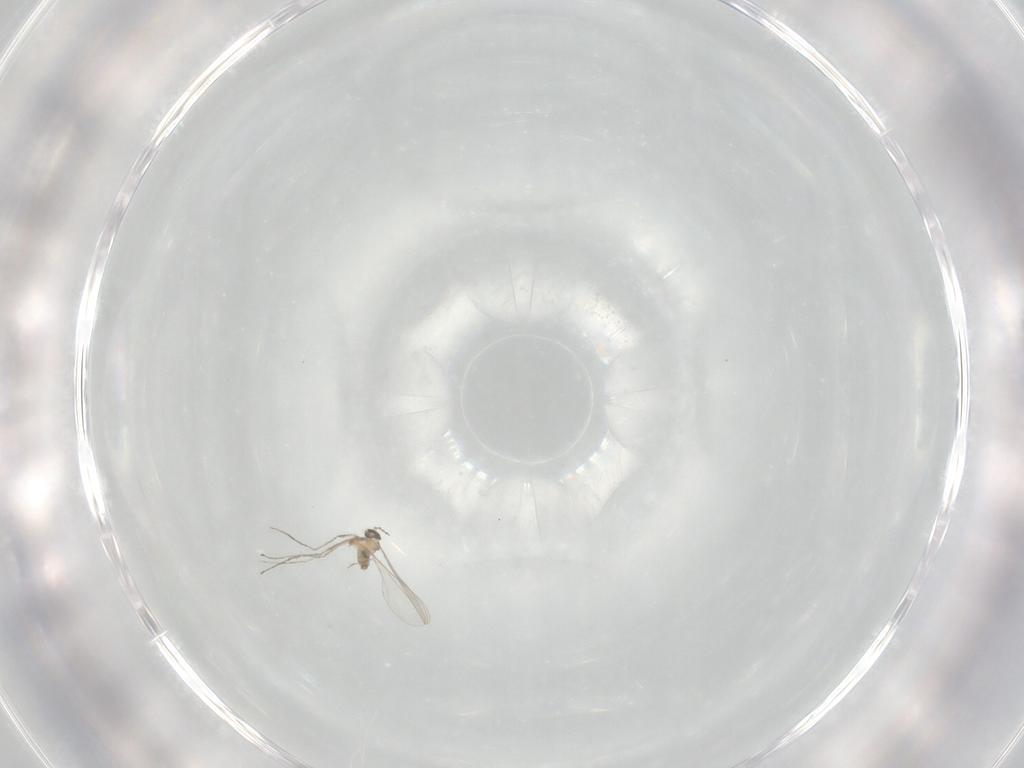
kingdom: Animalia
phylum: Arthropoda
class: Insecta
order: Diptera
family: Cecidomyiidae
